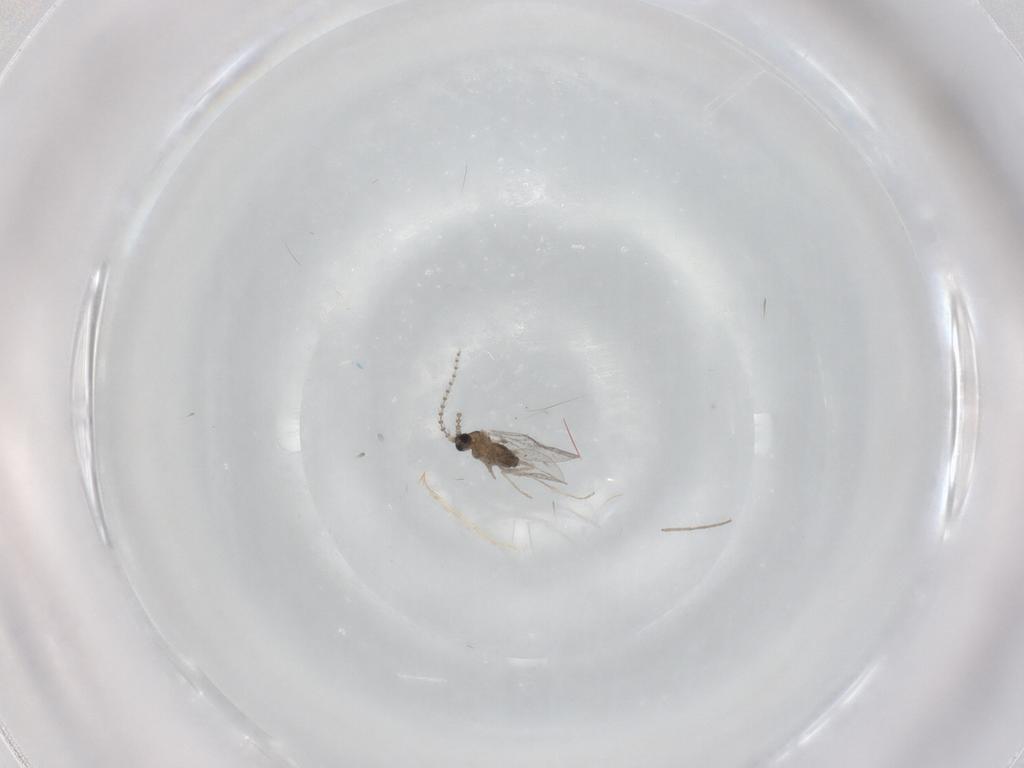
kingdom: Animalia
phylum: Arthropoda
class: Insecta
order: Diptera
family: Cecidomyiidae
